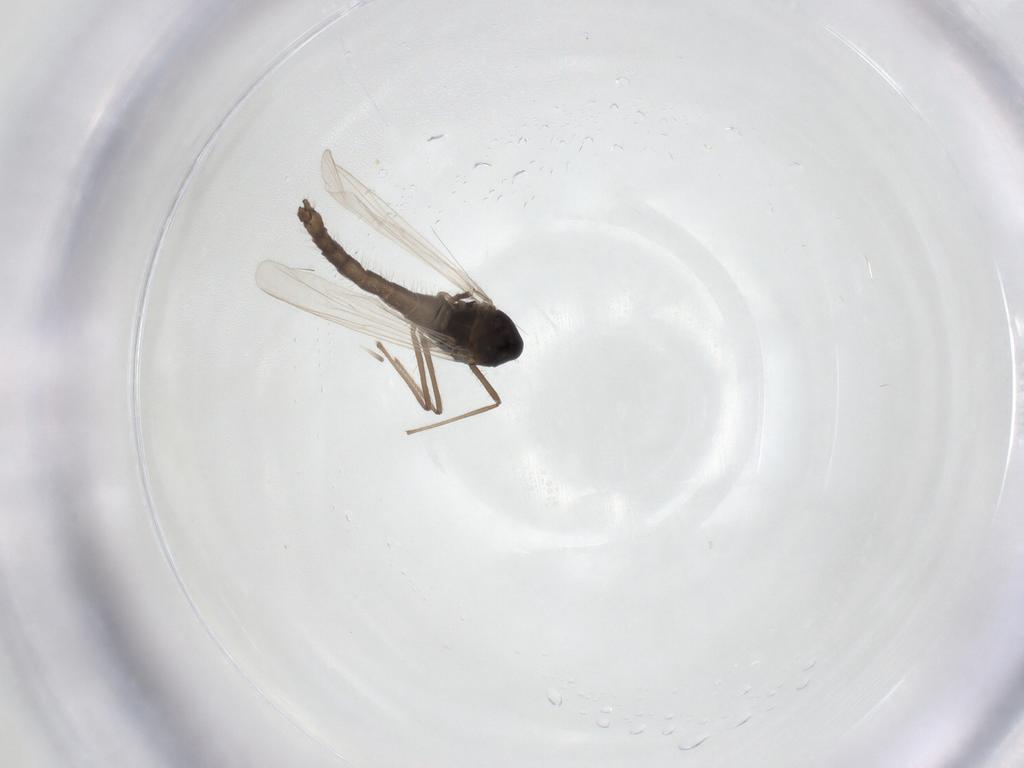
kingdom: Animalia
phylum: Arthropoda
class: Insecta
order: Diptera
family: Chironomidae
